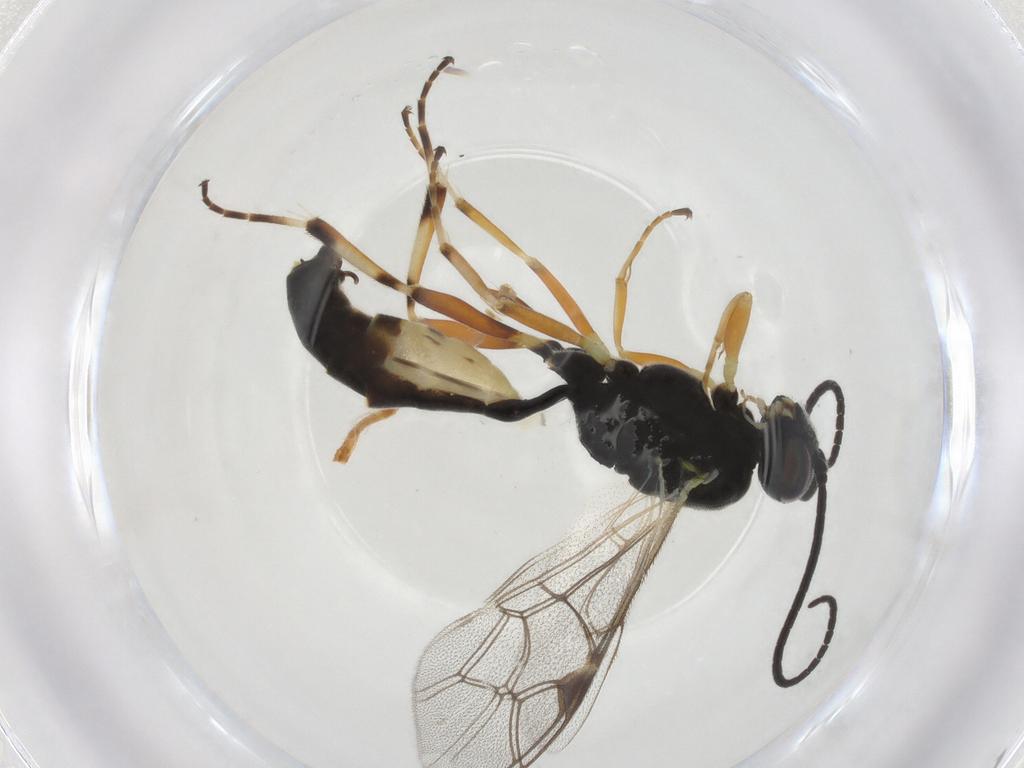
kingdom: Animalia
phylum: Arthropoda
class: Insecta
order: Hymenoptera
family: Ichneumonidae
